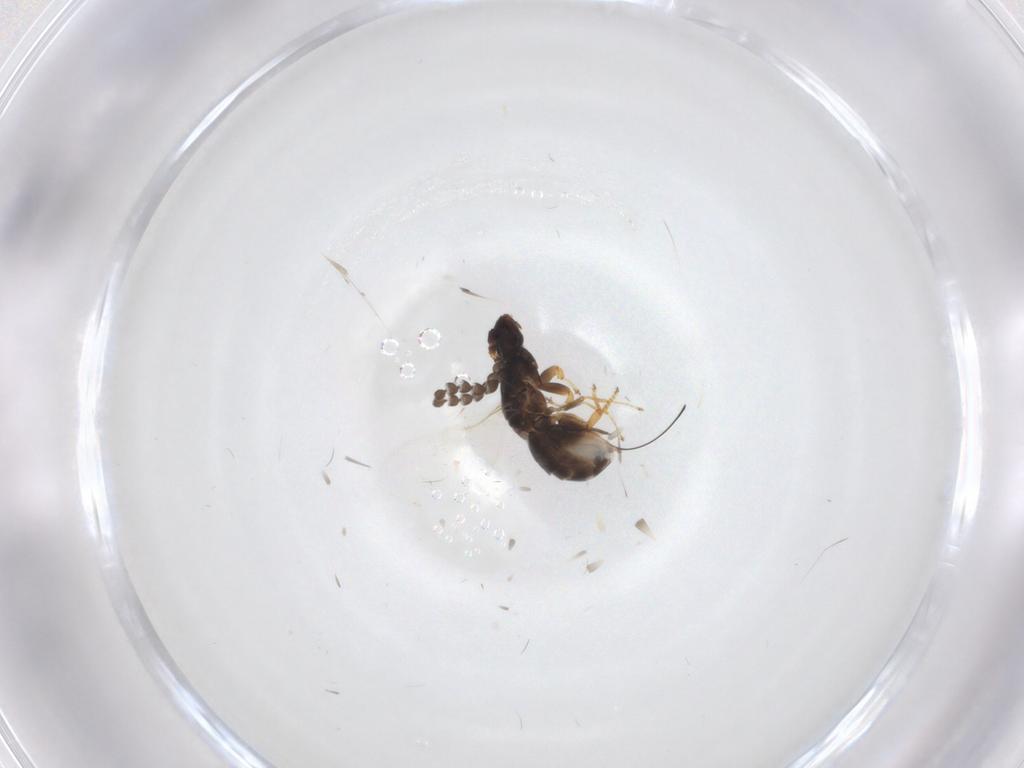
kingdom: Animalia
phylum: Arthropoda
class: Insecta
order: Hymenoptera
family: Agaonidae
